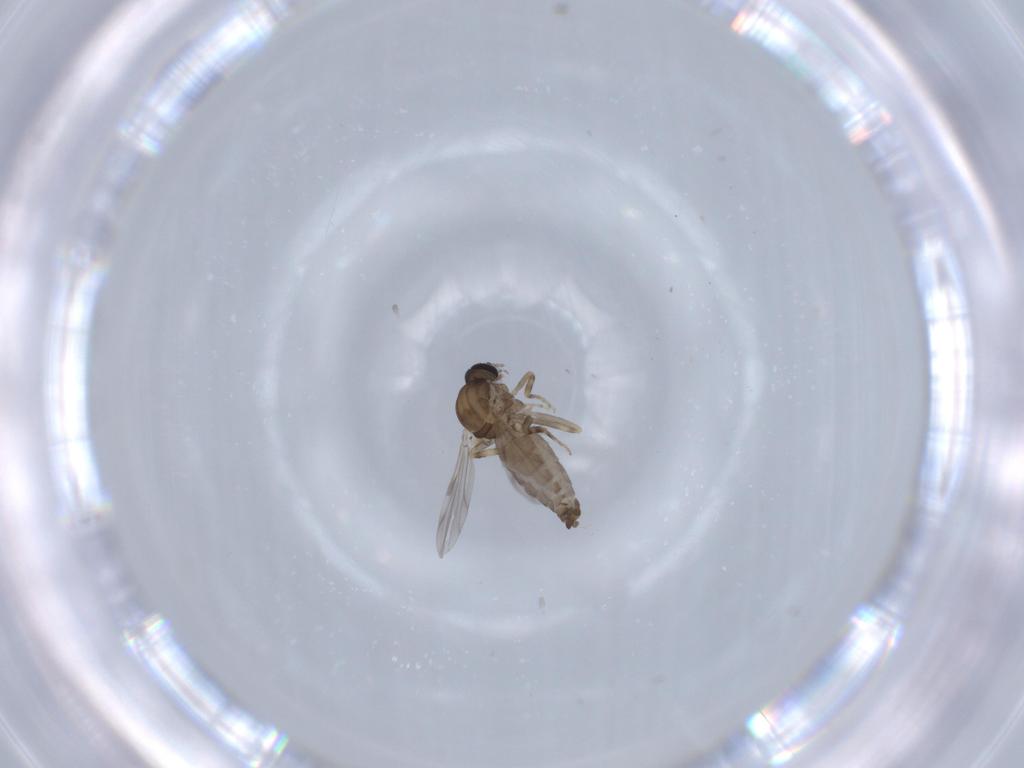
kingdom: Animalia
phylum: Arthropoda
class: Insecta
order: Diptera
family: Ceratopogonidae
